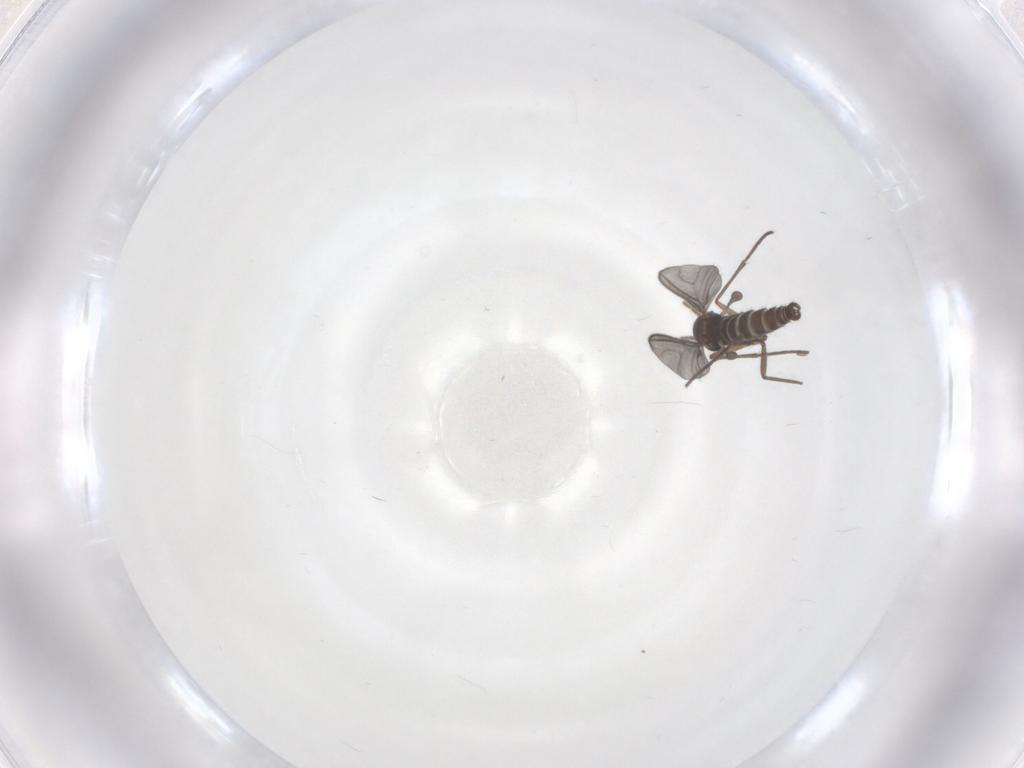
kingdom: Animalia
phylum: Arthropoda
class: Insecta
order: Diptera
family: Sciaridae
